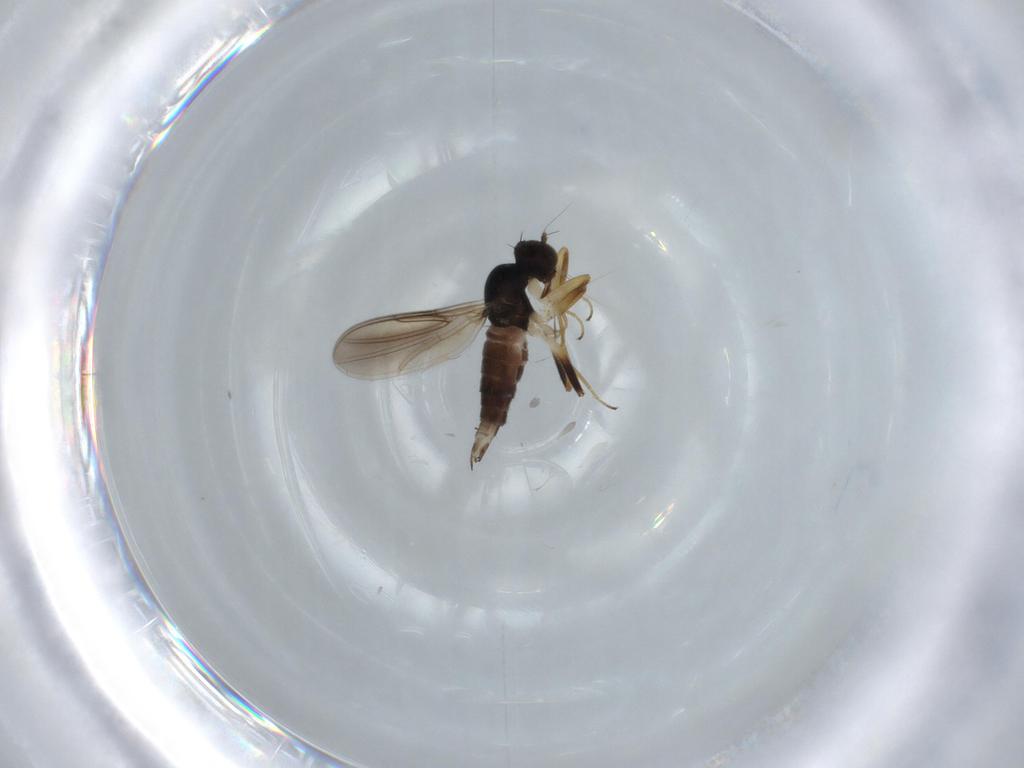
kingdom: Animalia
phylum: Arthropoda
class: Insecta
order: Diptera
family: Hybotidae
